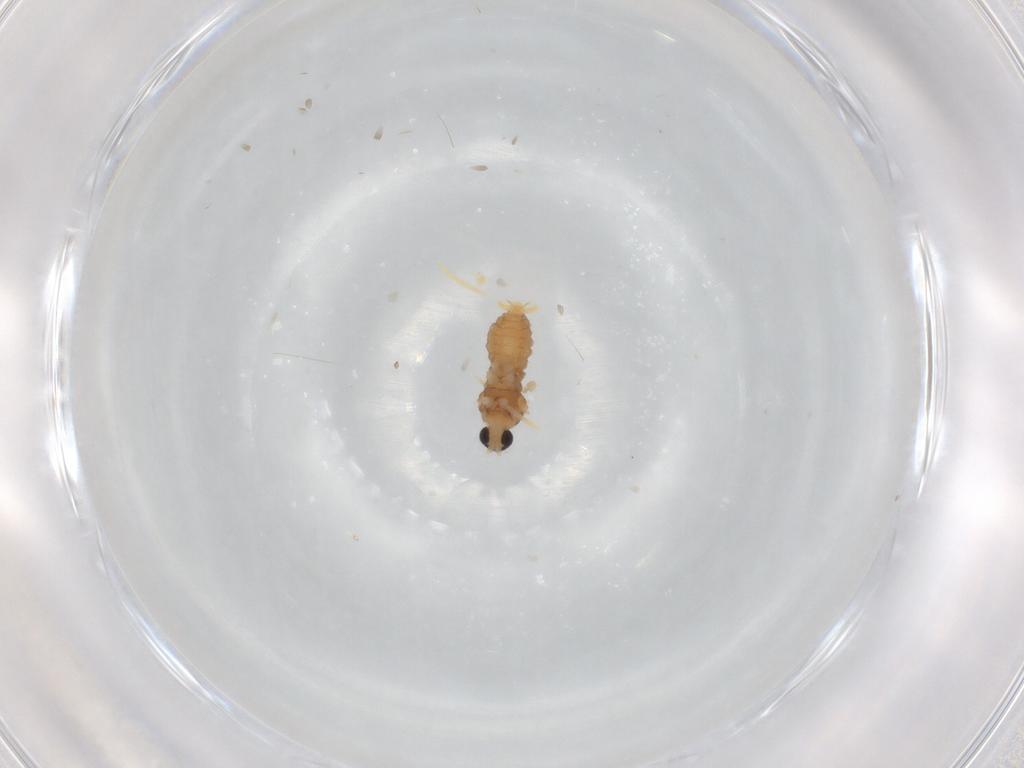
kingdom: Animalia
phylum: Arthropoda
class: Insecta
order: Diptera
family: Cecidomyiidae
